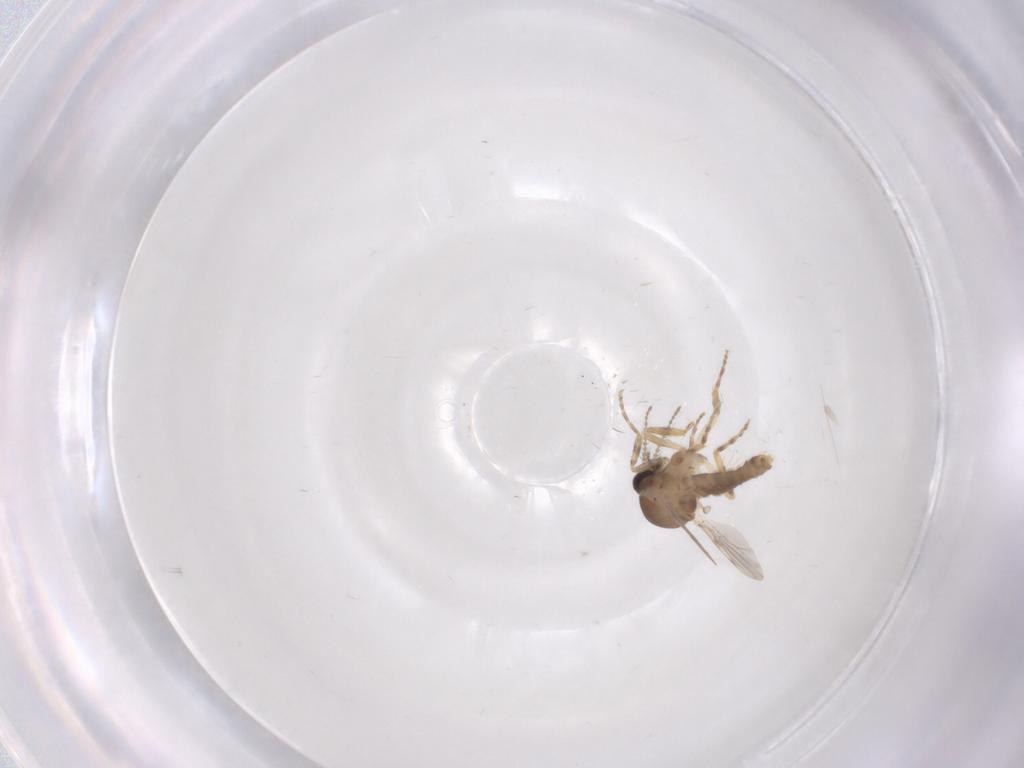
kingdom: Animalia
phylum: Arthropoda
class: Insecta
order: Diptera
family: Ceratopogonidae
